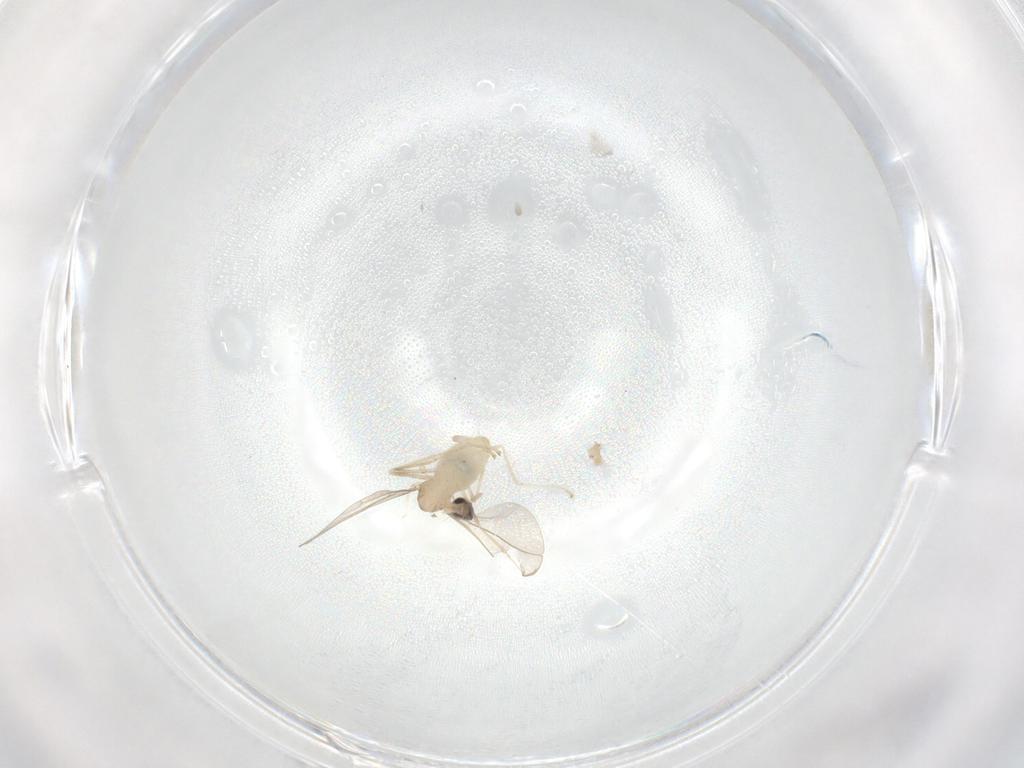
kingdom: Animalia
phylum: Arthropoda
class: Insecta
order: Diptera
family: Cecidomyiidae
